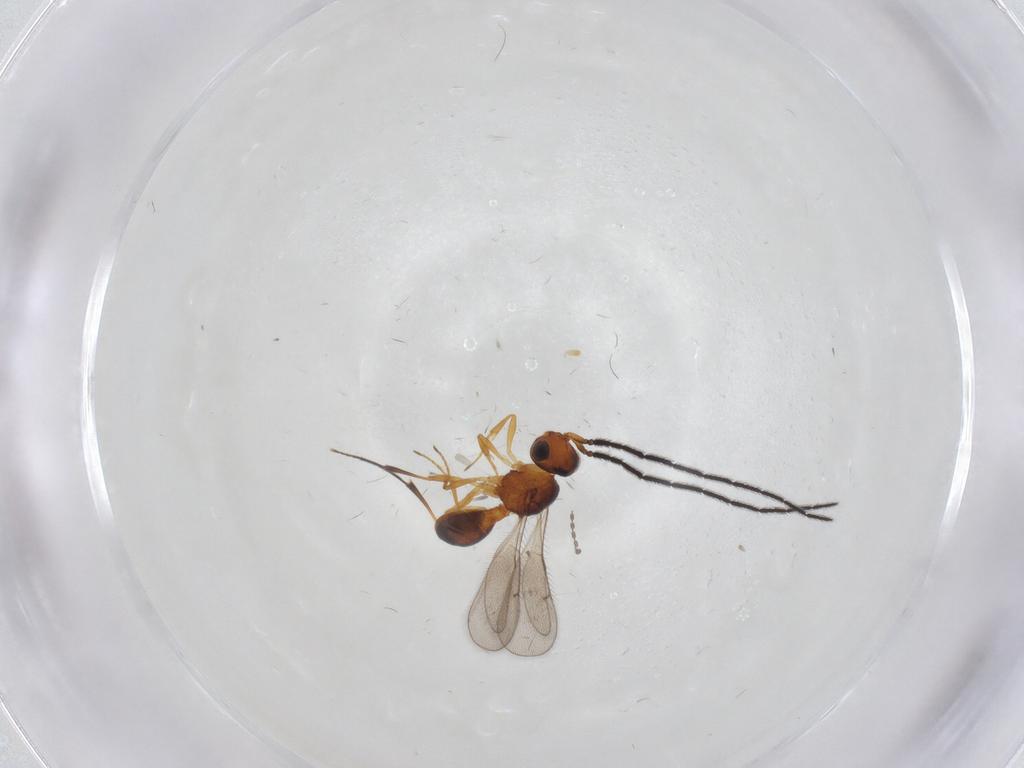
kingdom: Animalia
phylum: Arthropoda
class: Insecta
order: Hymenoptera
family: Scelionidae
